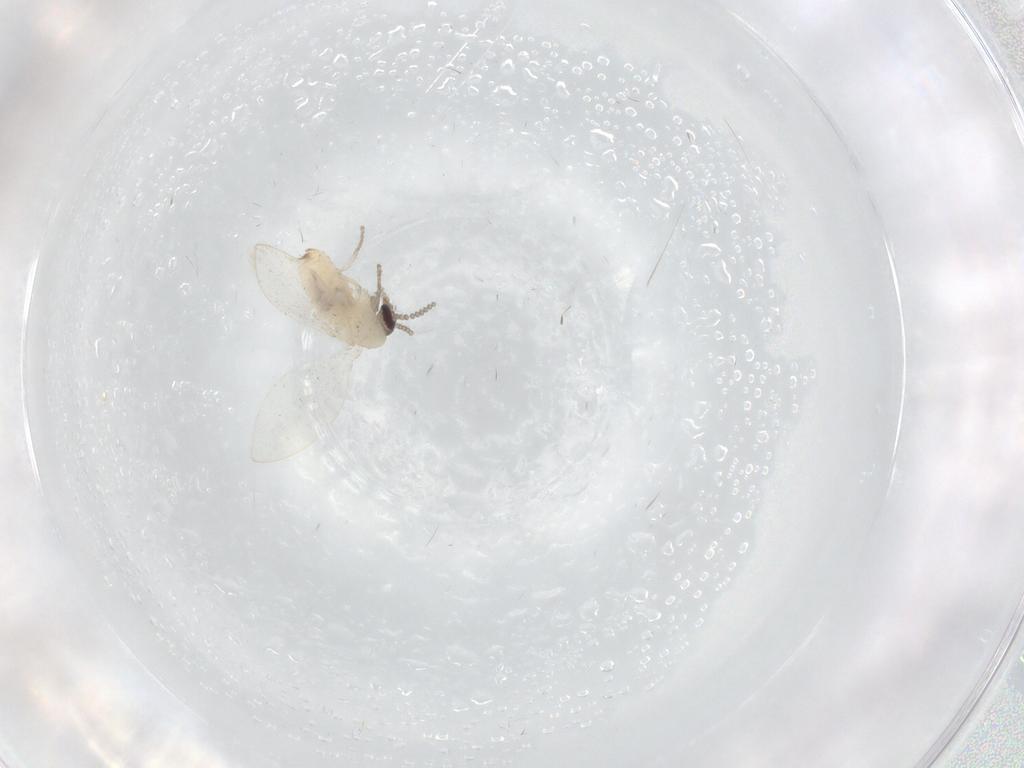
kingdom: Animalia
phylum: Arthropoda
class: Insecta
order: Diptera
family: Psychodidae
